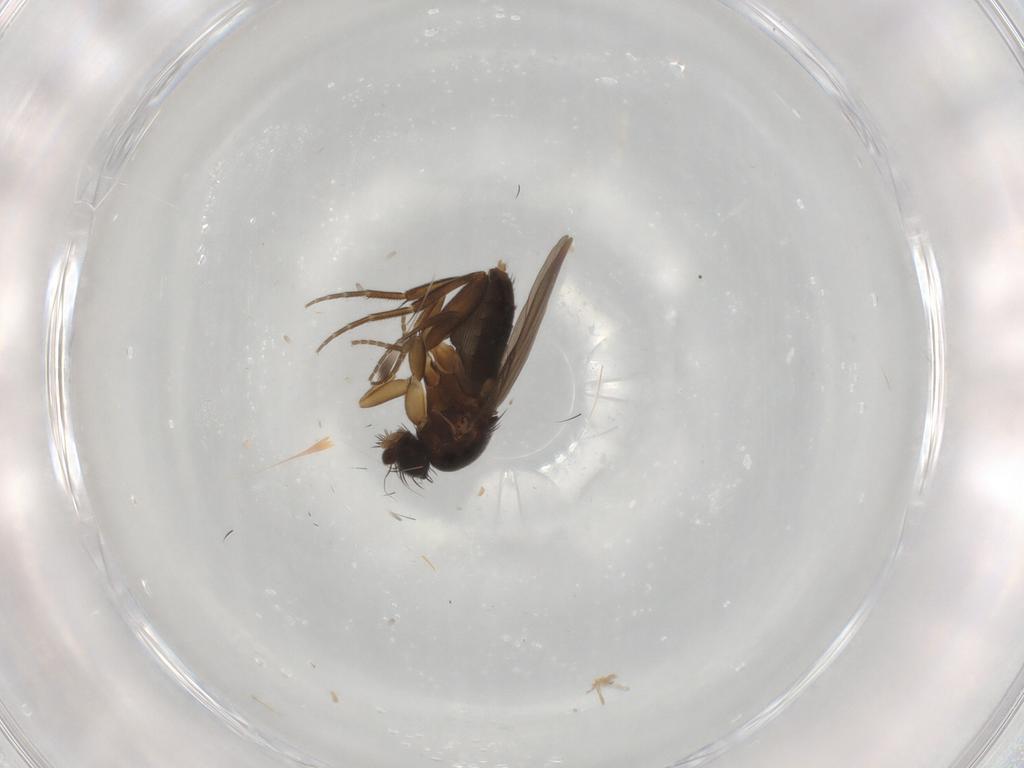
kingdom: Animalia
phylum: Arthropoda
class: Insecta
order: Diptera
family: Phoridae
